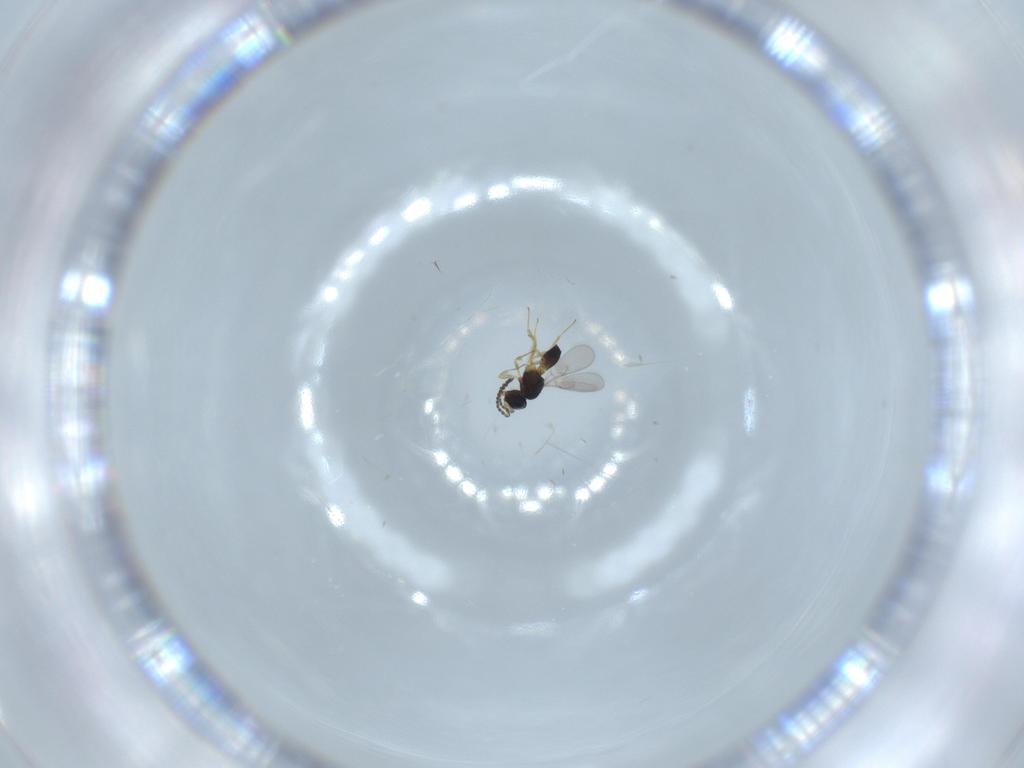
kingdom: Animalia
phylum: Arthropoda
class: Insecta
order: Hymenoptera
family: Scelionidae
